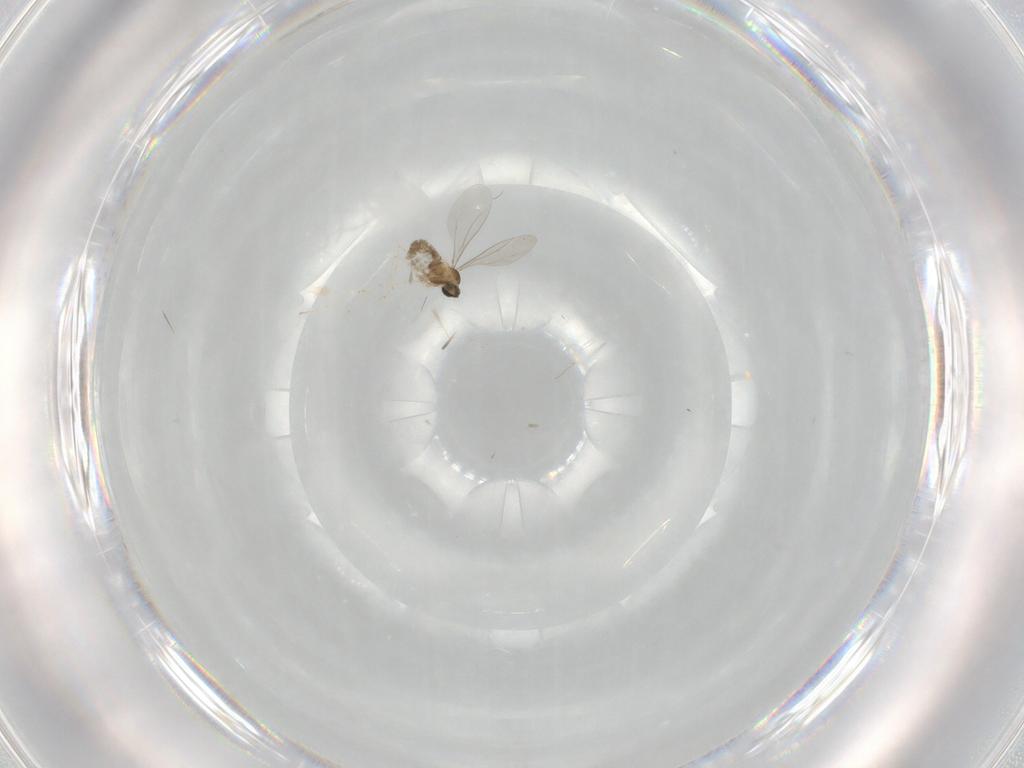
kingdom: Animalia
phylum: Arthropoda
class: Insecta
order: Diptera
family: Cecidomyiidae
